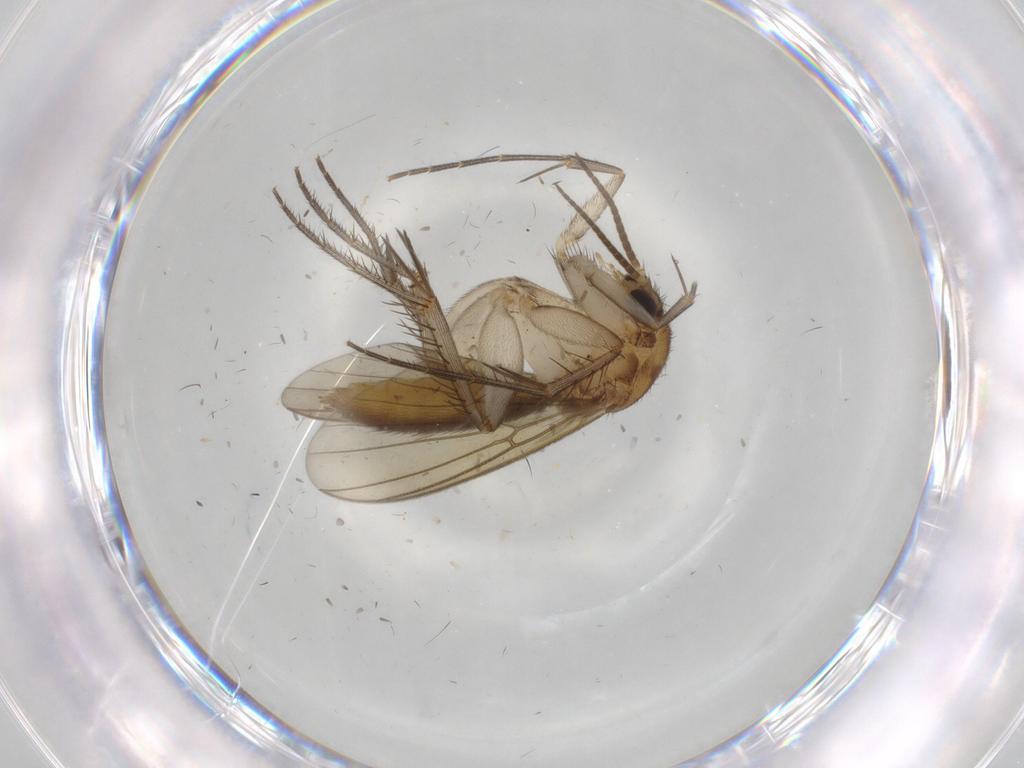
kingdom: Animalia
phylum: Arthropoda
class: Insecta
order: Diptera
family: Mycetophilidae
